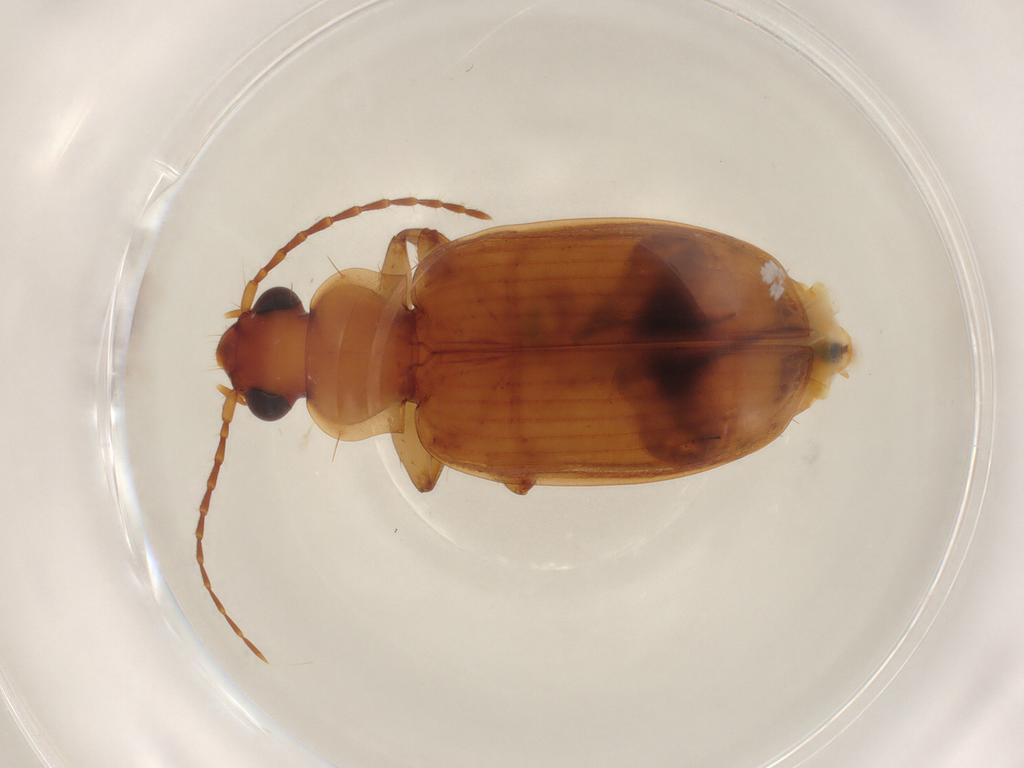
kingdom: Animalia
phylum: Arthropoda
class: Insecta
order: Coleoptera
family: Carabidae
